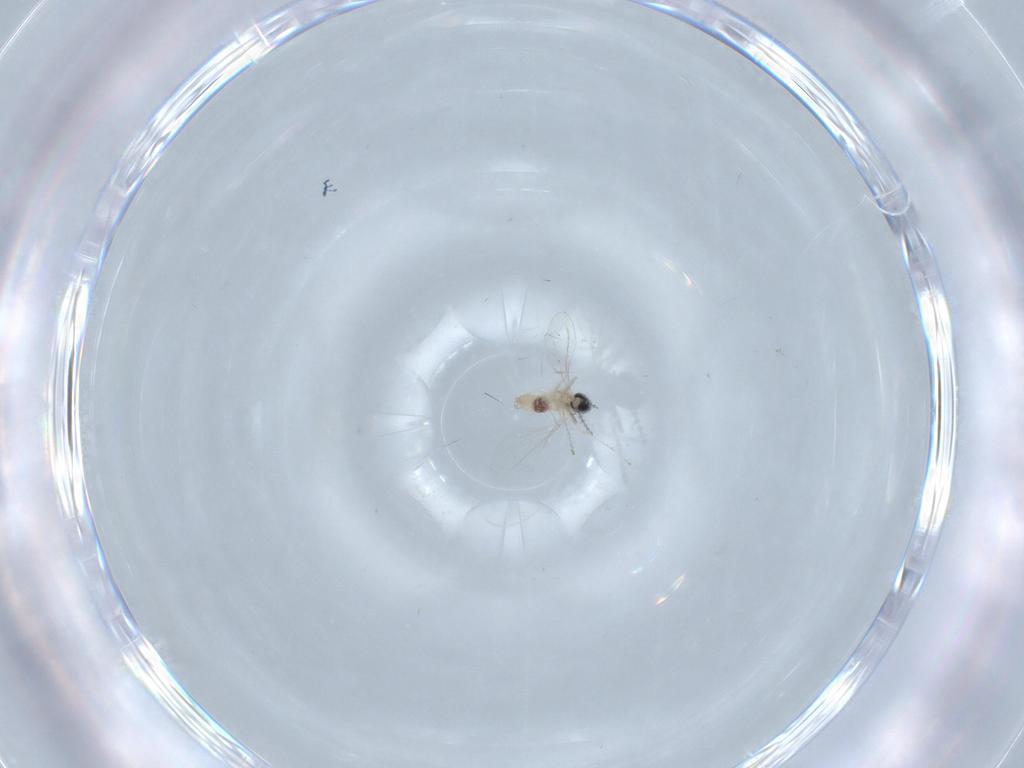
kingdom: Animalia
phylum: Arthropoda
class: Insecta
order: Diptera
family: Cecidomyiidae
